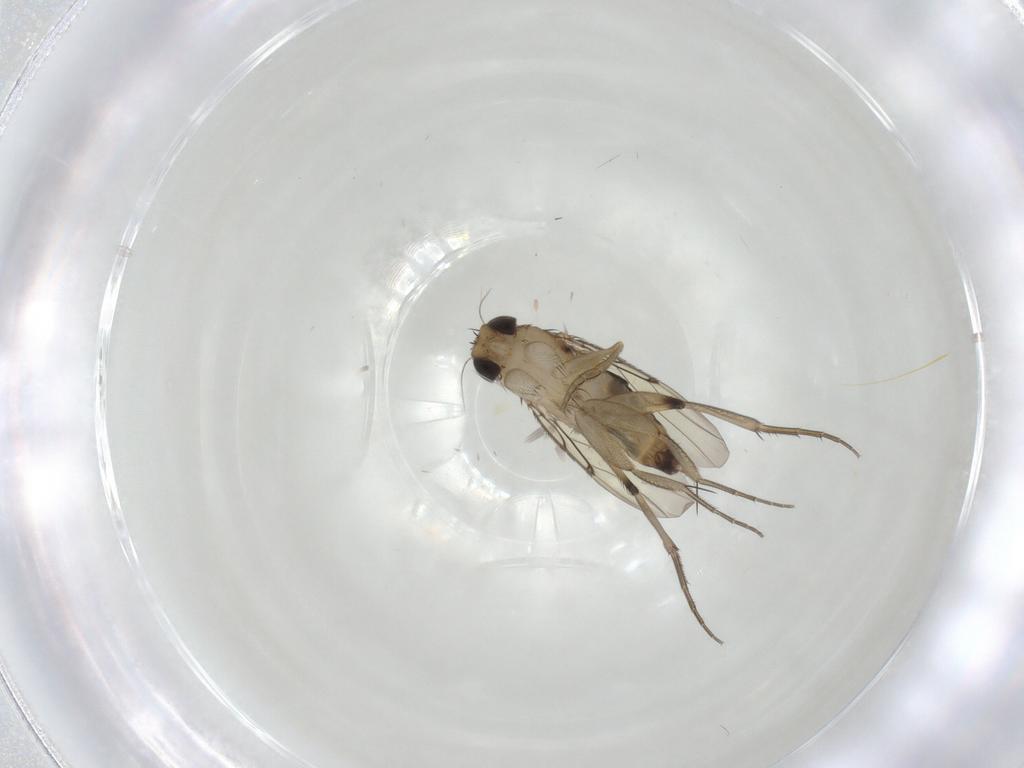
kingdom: Animalia
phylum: Arthropoda
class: Insecta
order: Diptera
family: Phoridae
